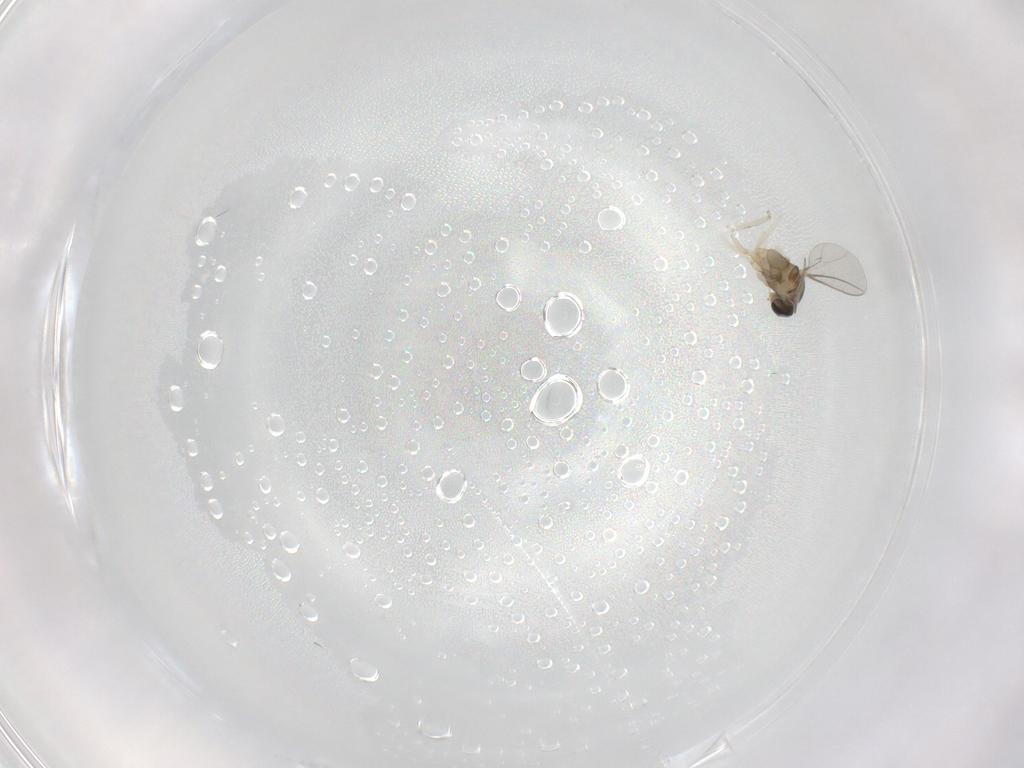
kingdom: Animalia
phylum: Arthropoda
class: Insecta
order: Diptera
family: Cecidomyiidae
